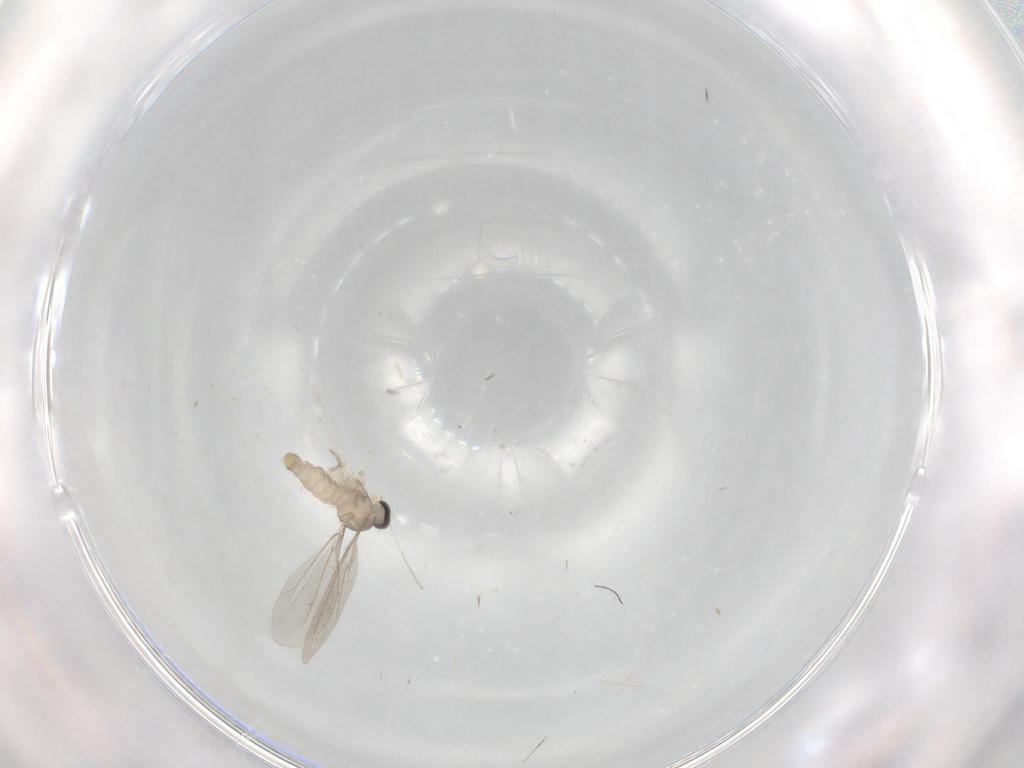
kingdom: Animalia
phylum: Arthropoda
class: Insecta
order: Diptera
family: Cecidomyiidae
